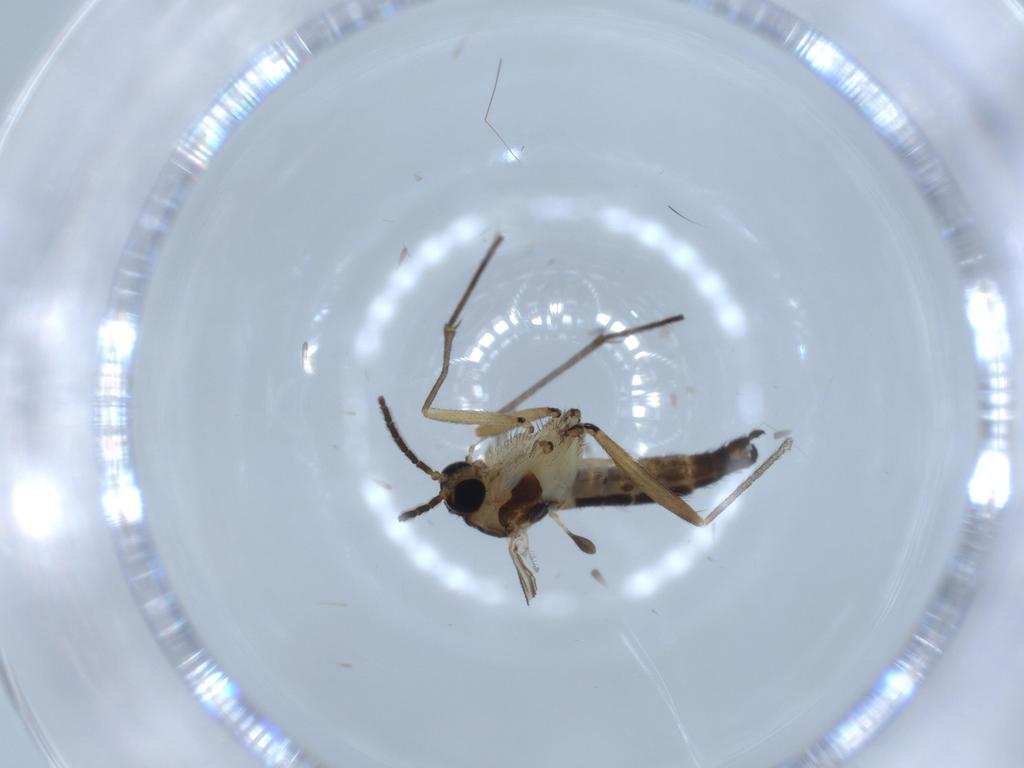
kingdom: Animalia
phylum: Arthropoda
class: Insecta
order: Diptera
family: Sciaridae
